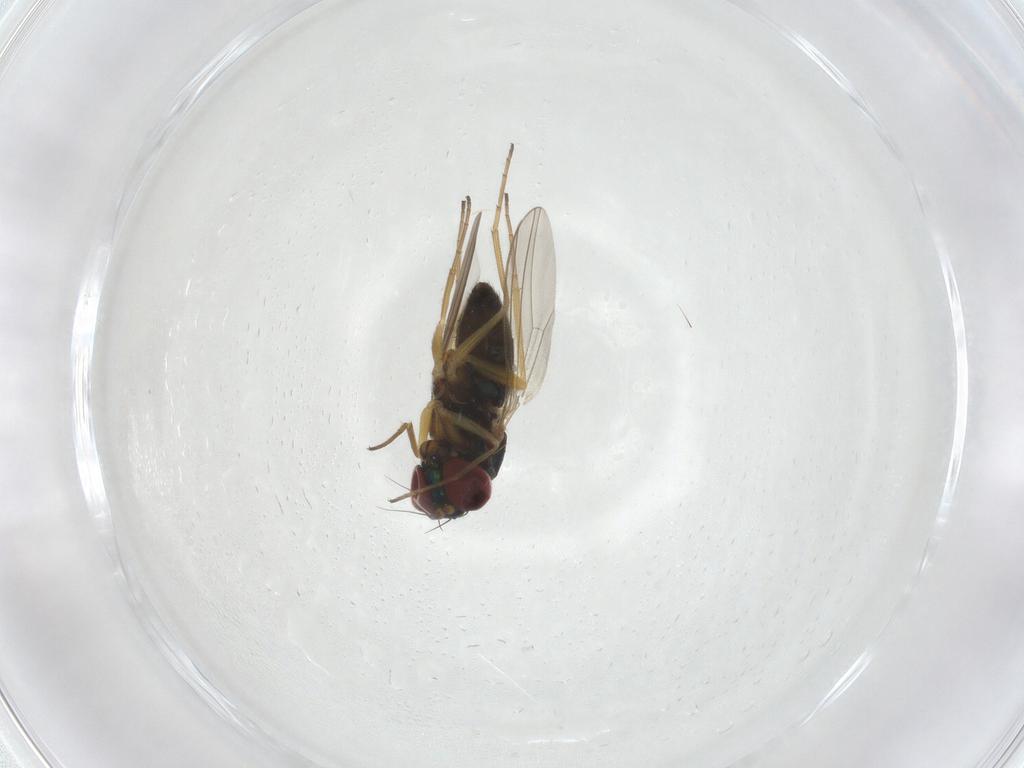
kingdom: Animalia
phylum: Arthropoda
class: Insecta
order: Diptera
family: Dolichopodidae
